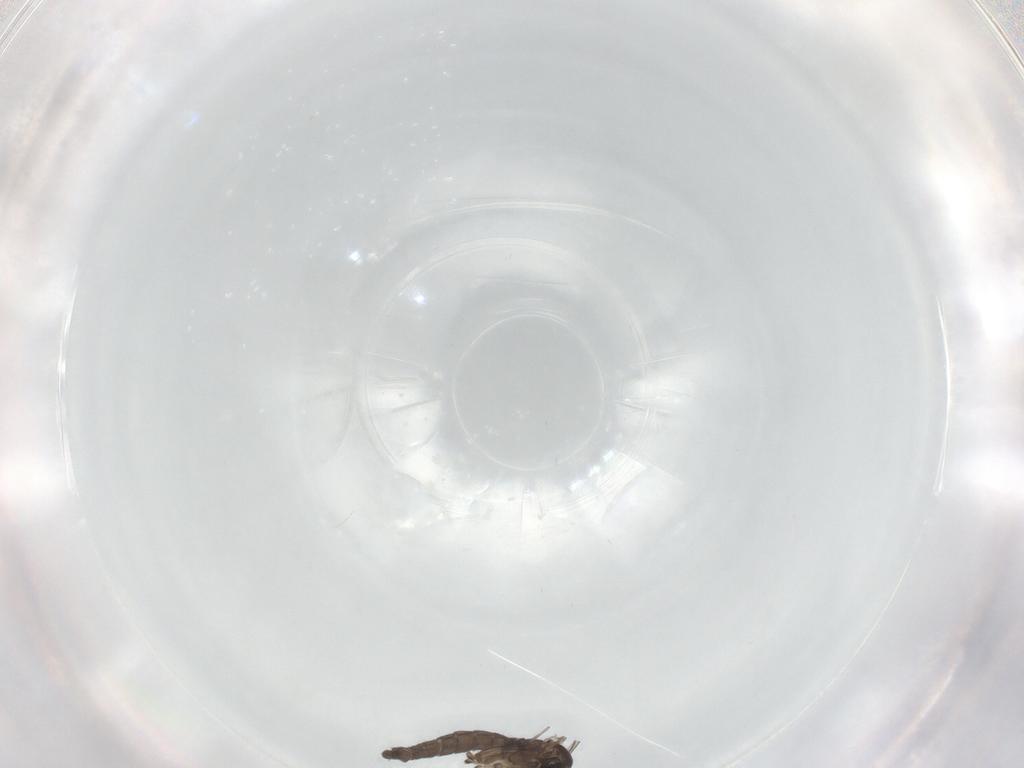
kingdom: Animalia
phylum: Arthropoda
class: Insecta
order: Diptera
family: Sciaridae
